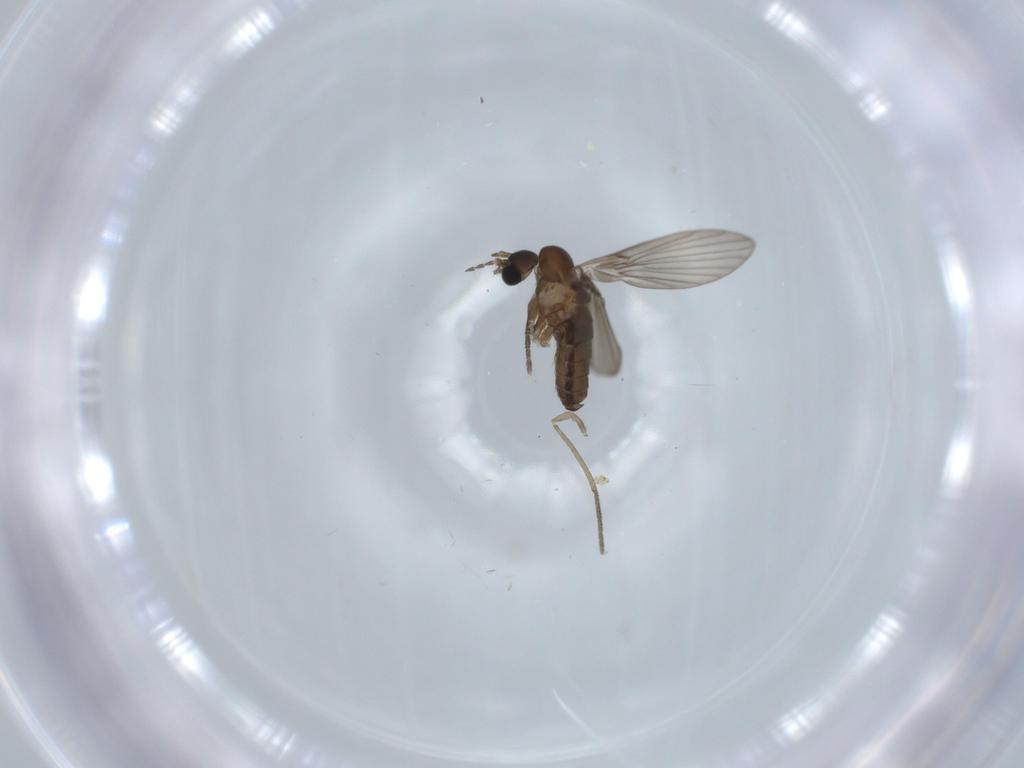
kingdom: Animalia
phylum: Arthropoda
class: Insecta
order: Diptera
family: Psychodidae
